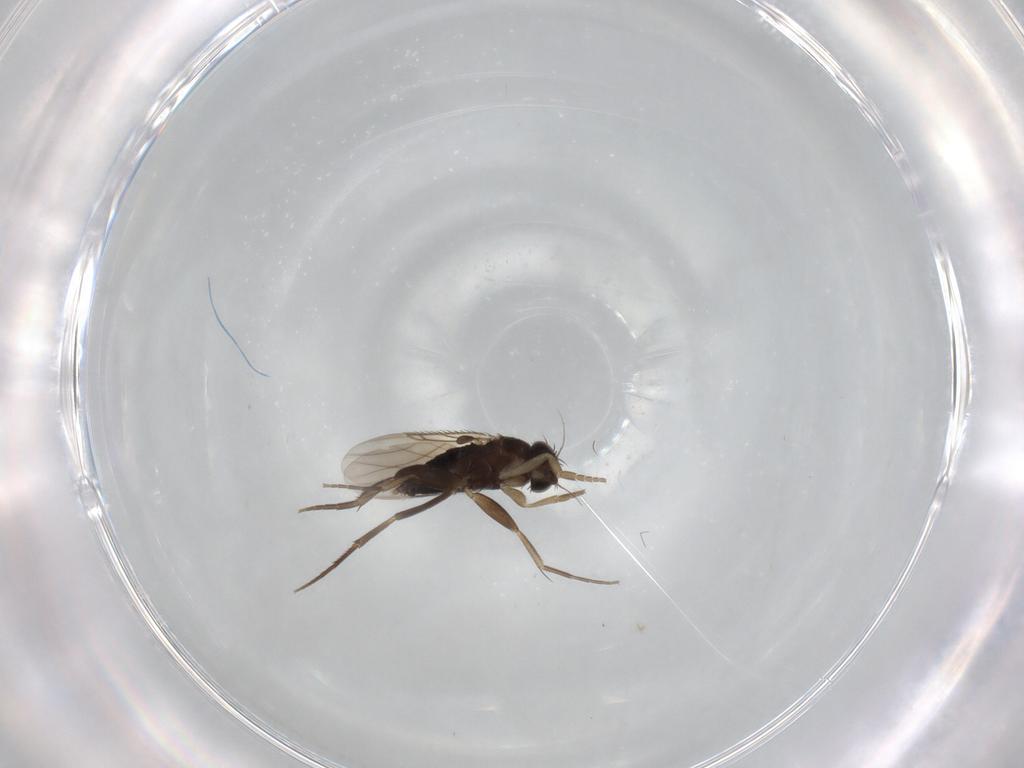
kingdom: Animalia
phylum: Arthropoda
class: Insecta
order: Diptera
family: Phoridae
